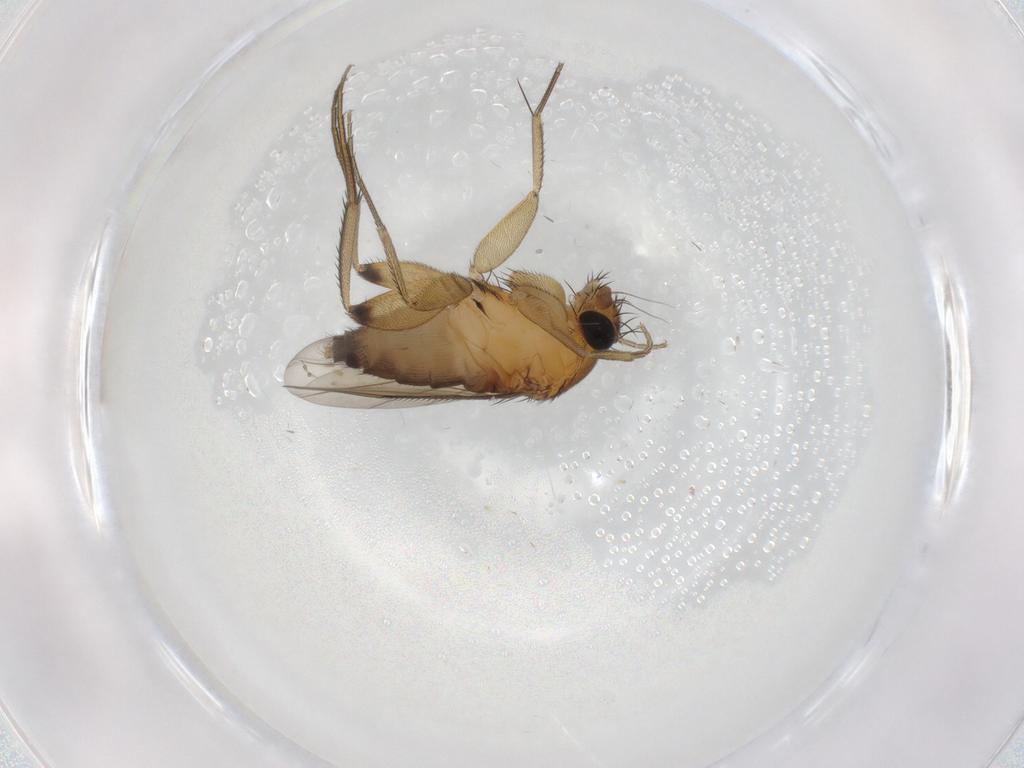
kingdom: Animalia
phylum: Arthropoda
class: Insecta
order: Diptera
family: Phoridae
